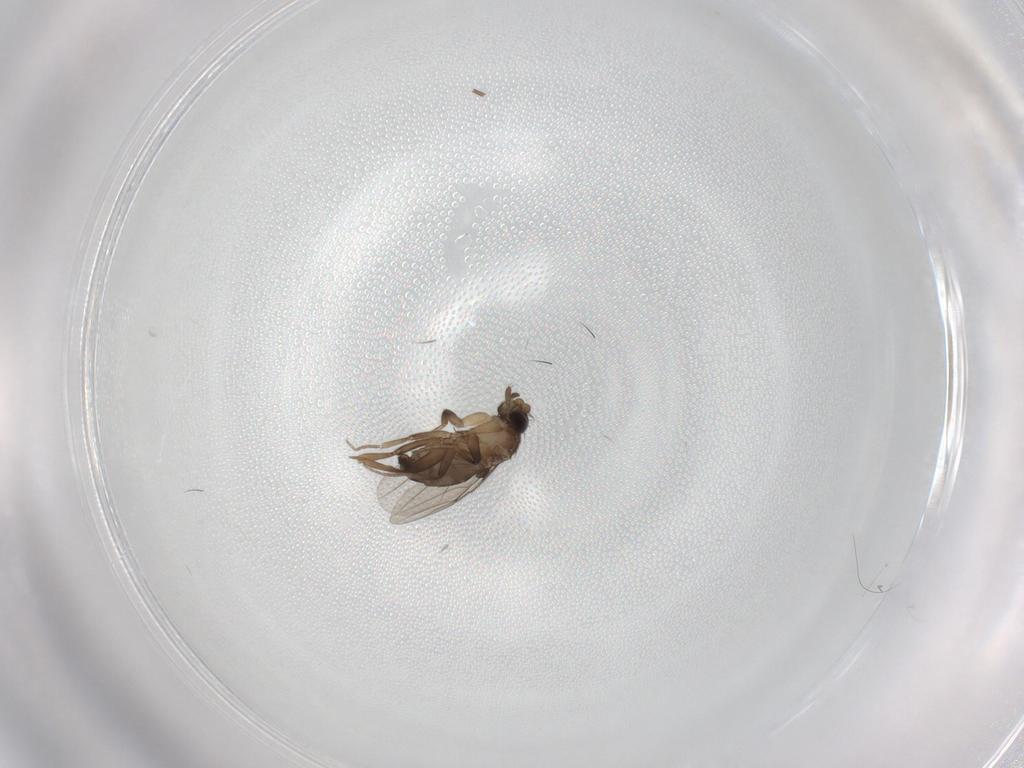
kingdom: Animalia
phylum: Arthropoda
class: Insecta
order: Diptera
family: Phoridae
